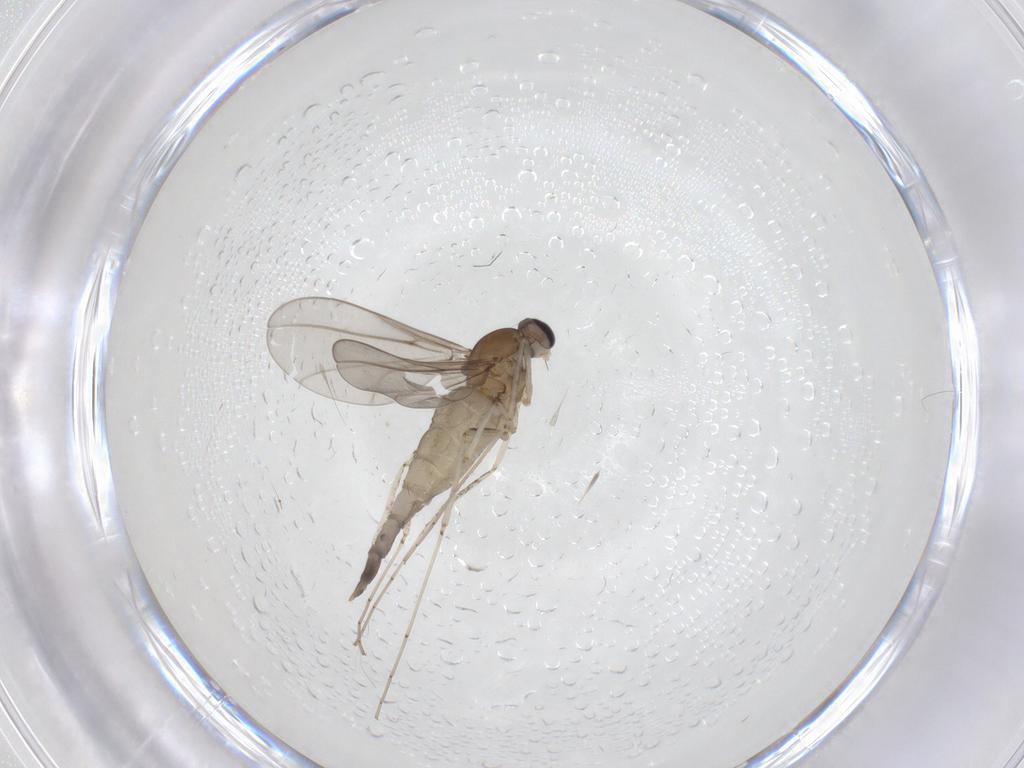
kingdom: Animalia
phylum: Arthropoda
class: Insecta
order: Diptera
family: Cecidomyiidae
